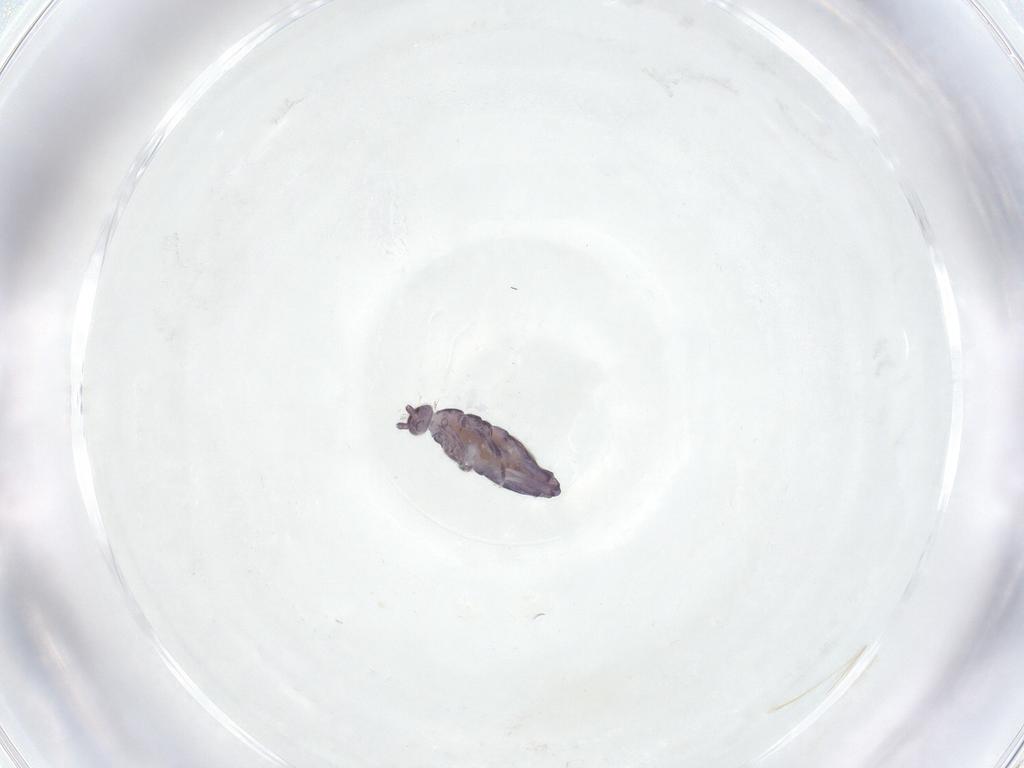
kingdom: Animalia
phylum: Arthropoda
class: Collembola
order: Entomobryomorpha
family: Entomobryidae
